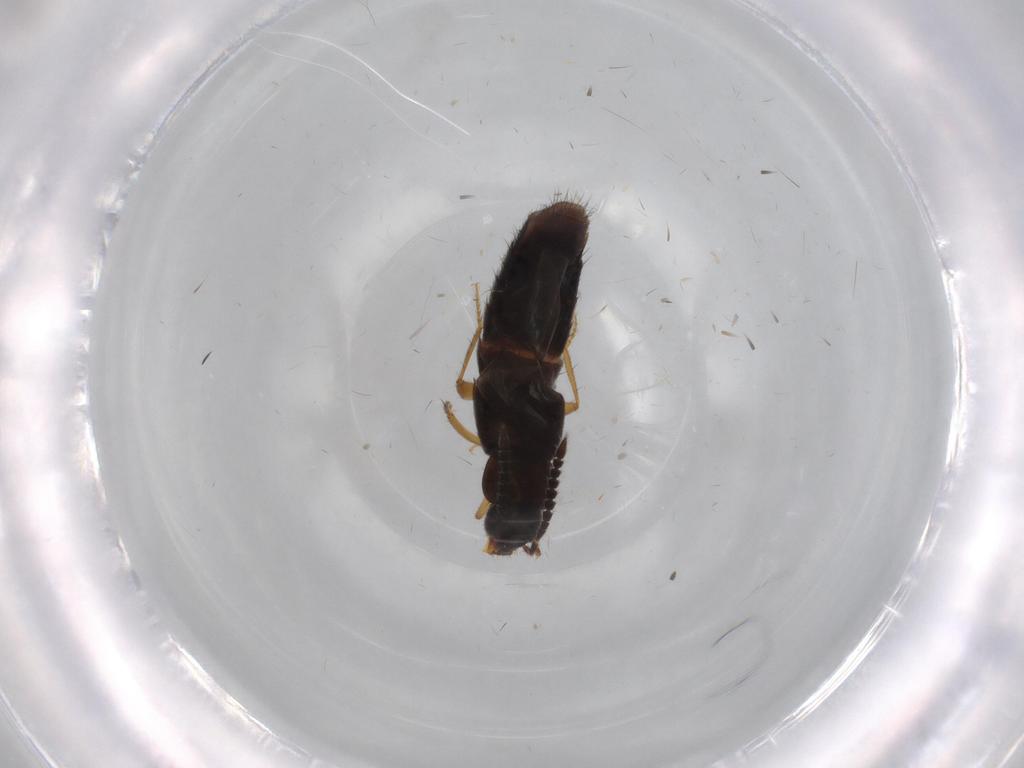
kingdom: Animalia
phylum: Arthropoda
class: Insecta
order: Coleoptera
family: Staphylinidae
